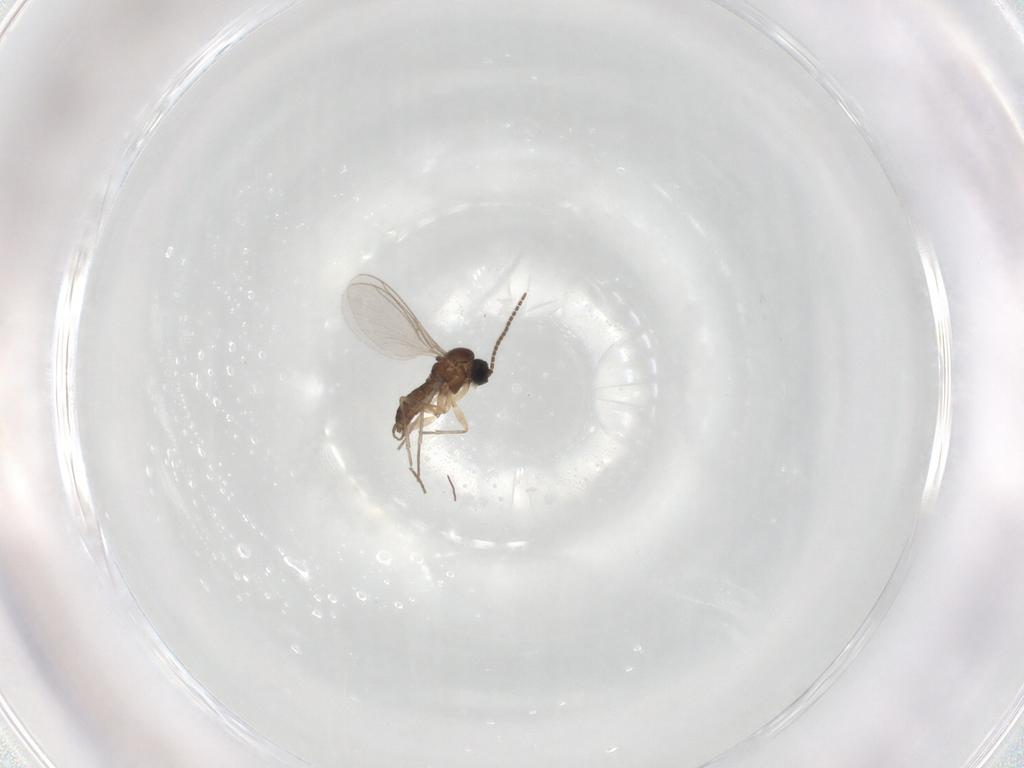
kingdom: Animalia
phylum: Arthropoda
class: Insecta
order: Diptera
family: Sciaridae
